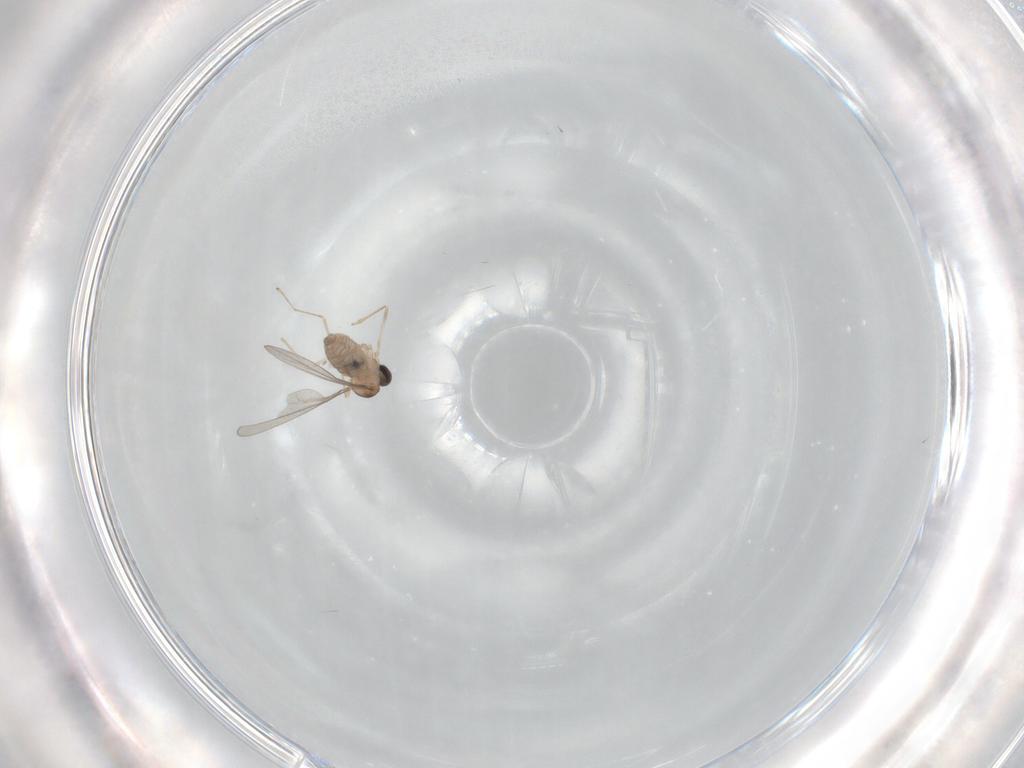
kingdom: Animalia
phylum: Arthropoda
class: Insecta
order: Diptera
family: Cecidomyiidae
